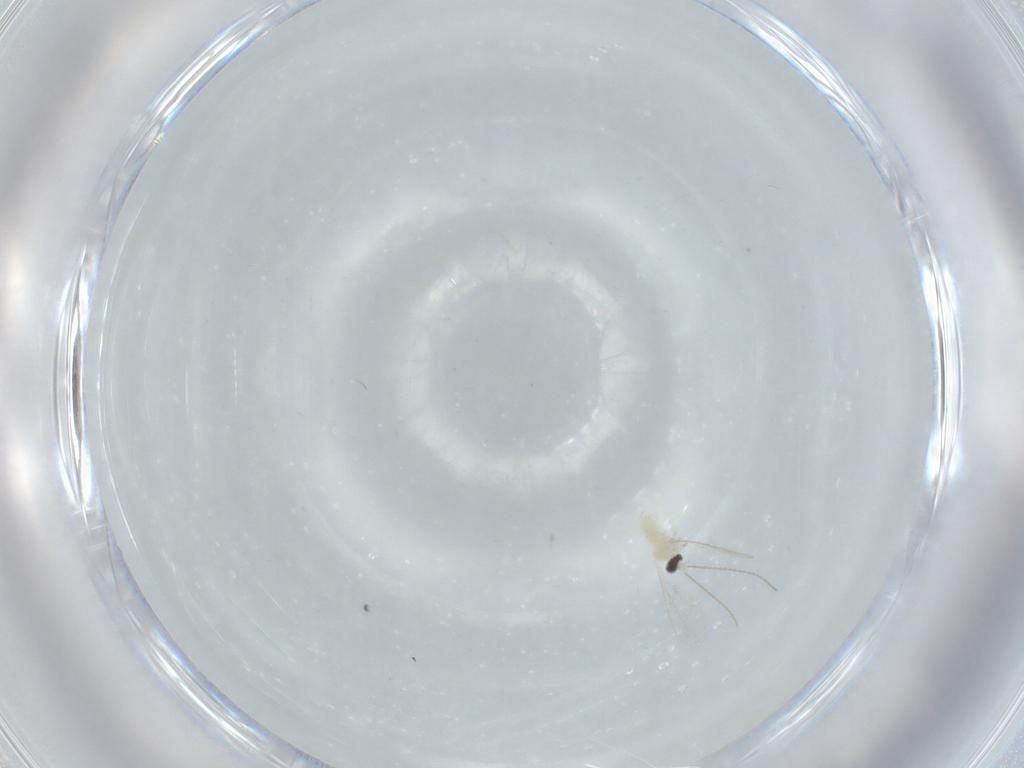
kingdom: Animalia
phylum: Arthropoda
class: Insecta
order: Diptera
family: Cecidomyiidae
